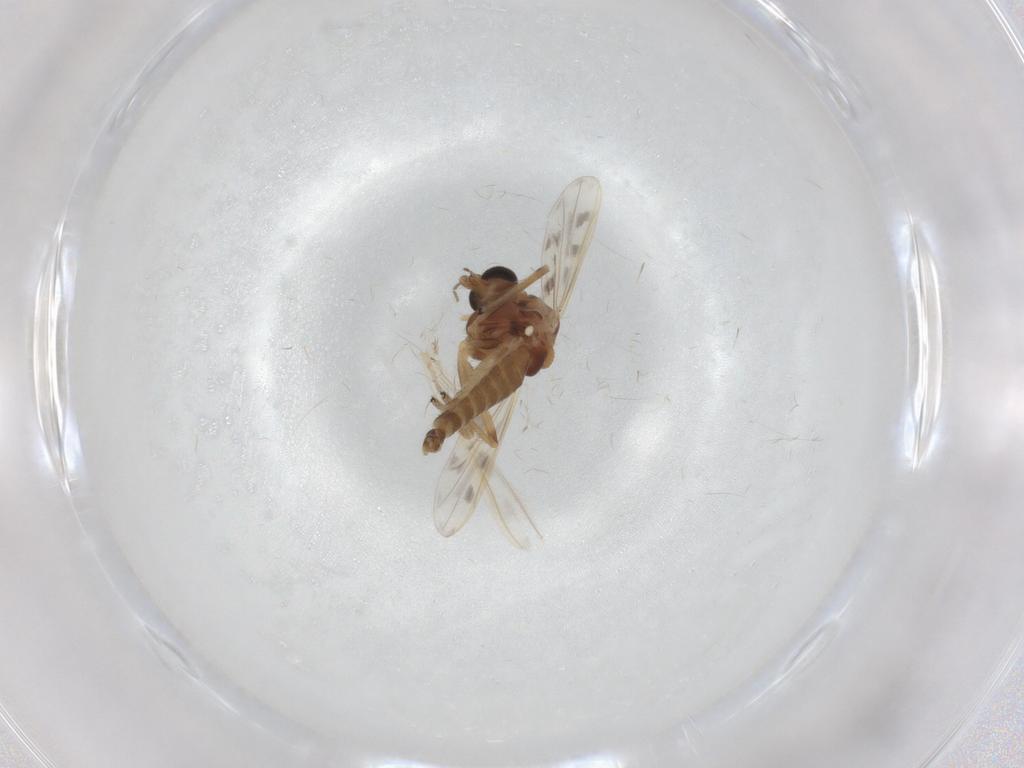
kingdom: Animalia
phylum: Arthropoda
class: Insecta
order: Diptera
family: Chironomidae
